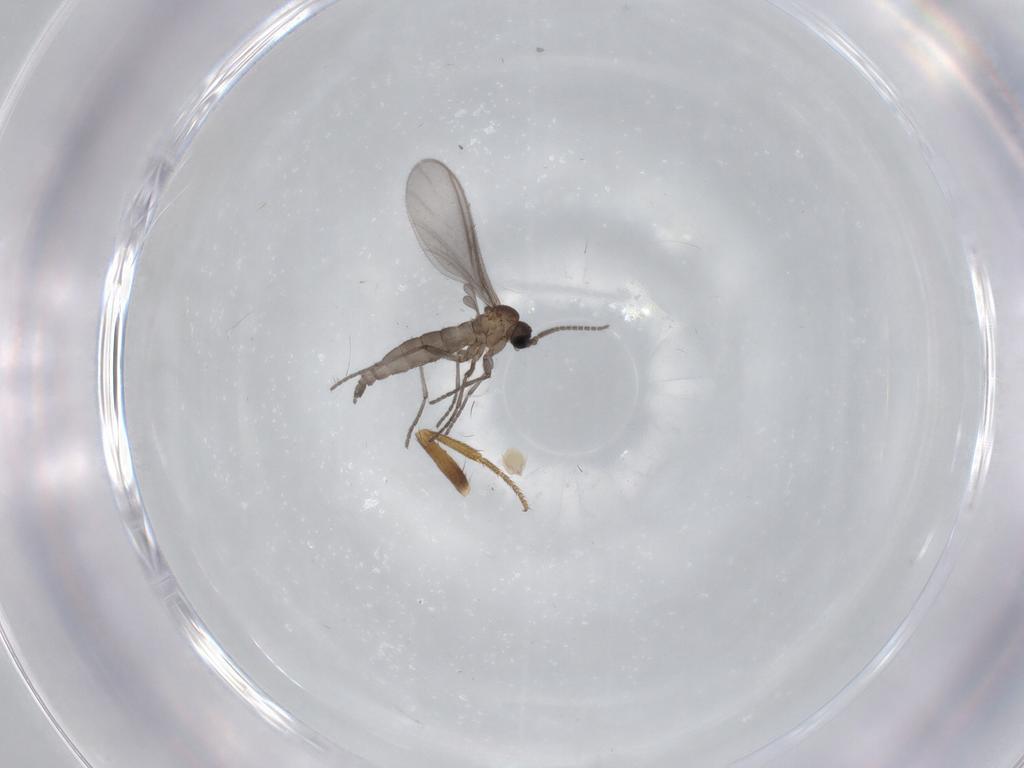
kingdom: Animalia
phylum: Arthropoda
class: Insecta
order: Diptera
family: Sciaridae
